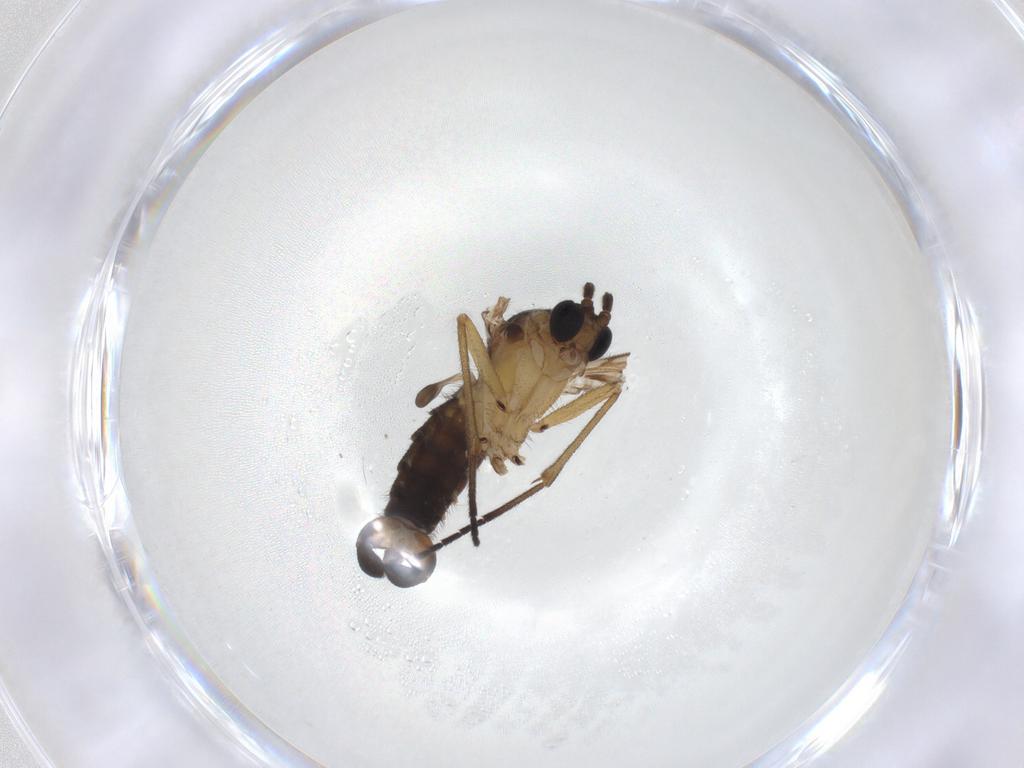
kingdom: Animalia
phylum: Arthropoda
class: Insecta
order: Diptera
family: Sciaridae
